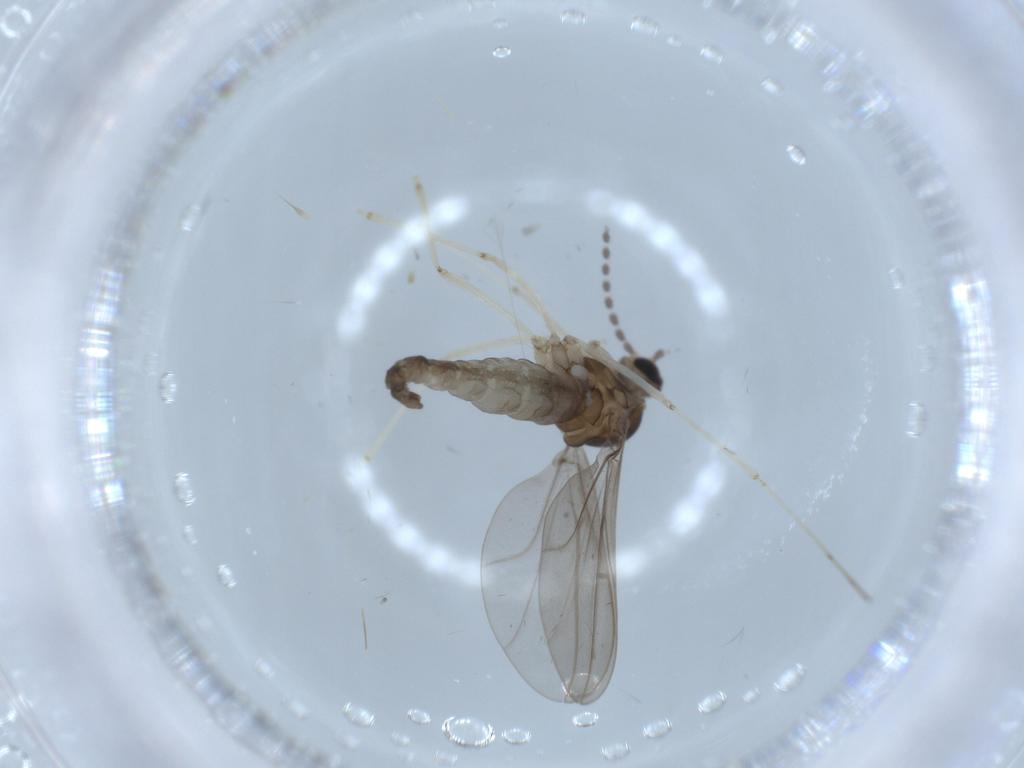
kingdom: Animalia
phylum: Arthropoda
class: Insecta
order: Diptera
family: Cecidomyiidae
